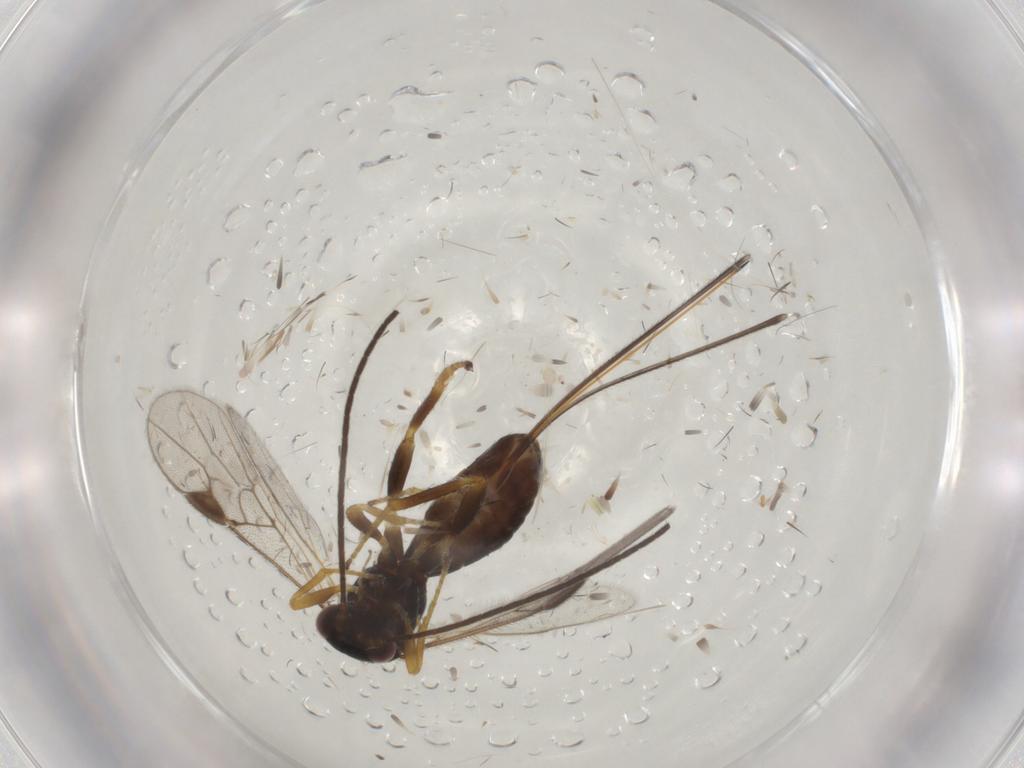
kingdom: Animalia
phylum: Arthropoda
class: Insecta
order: Hymenoptera
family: Braconidae
